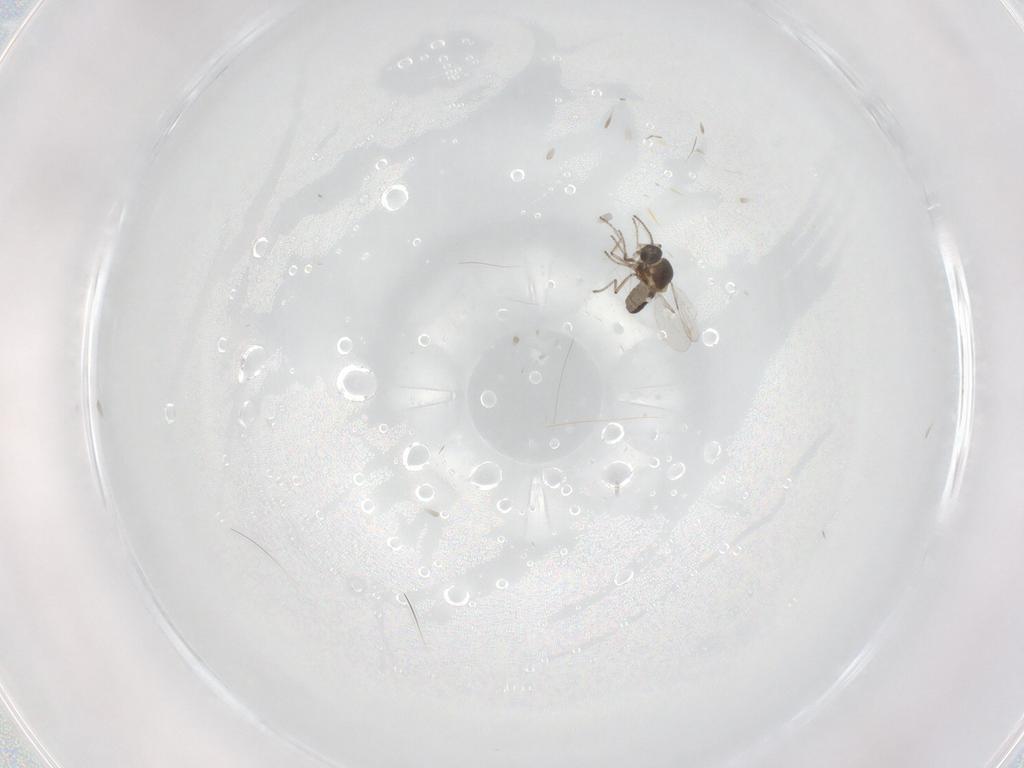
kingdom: Animalia
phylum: Arthropoda
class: Insecta
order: Diptera
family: Ceratopogonidae
